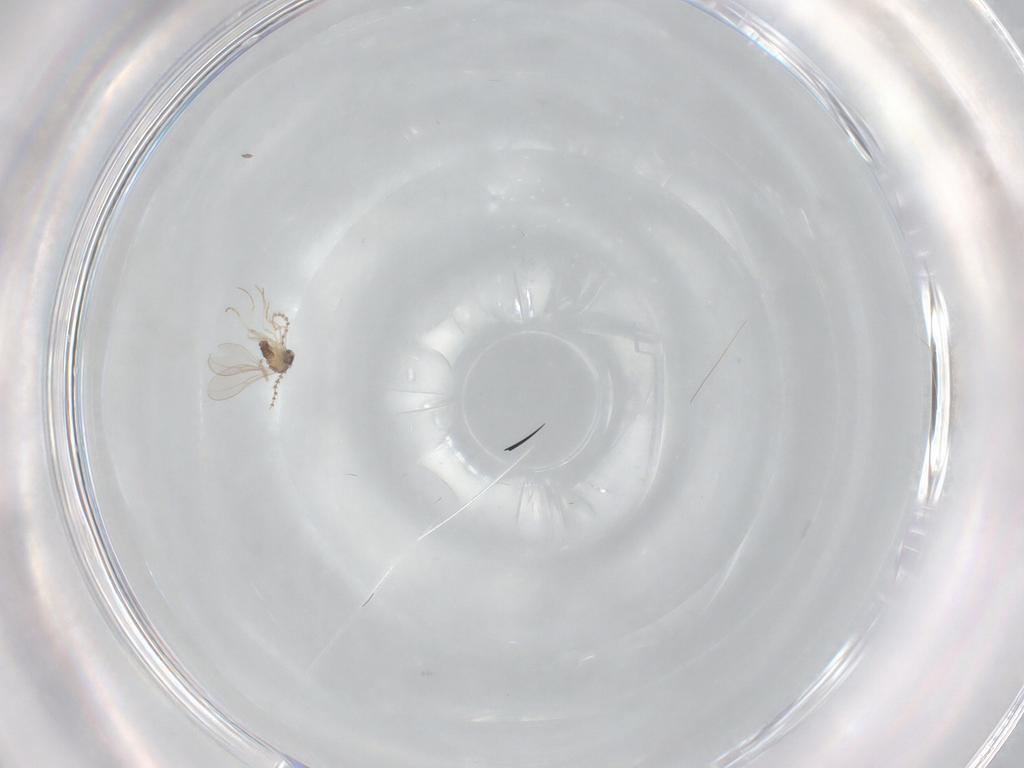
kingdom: Animalia
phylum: Arthropoda
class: Insecta
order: Diptera
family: Cecidomyiidae
